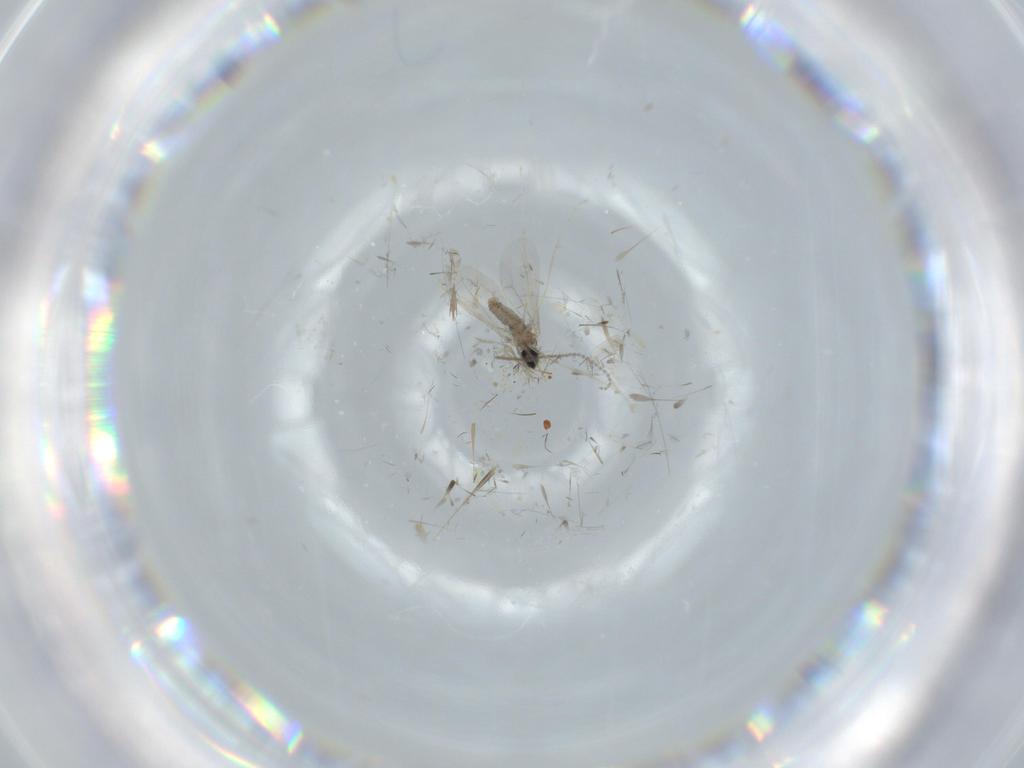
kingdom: Animalia
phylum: Arthropoda
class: Insecta
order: Diptera
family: Cecidomyiidae
